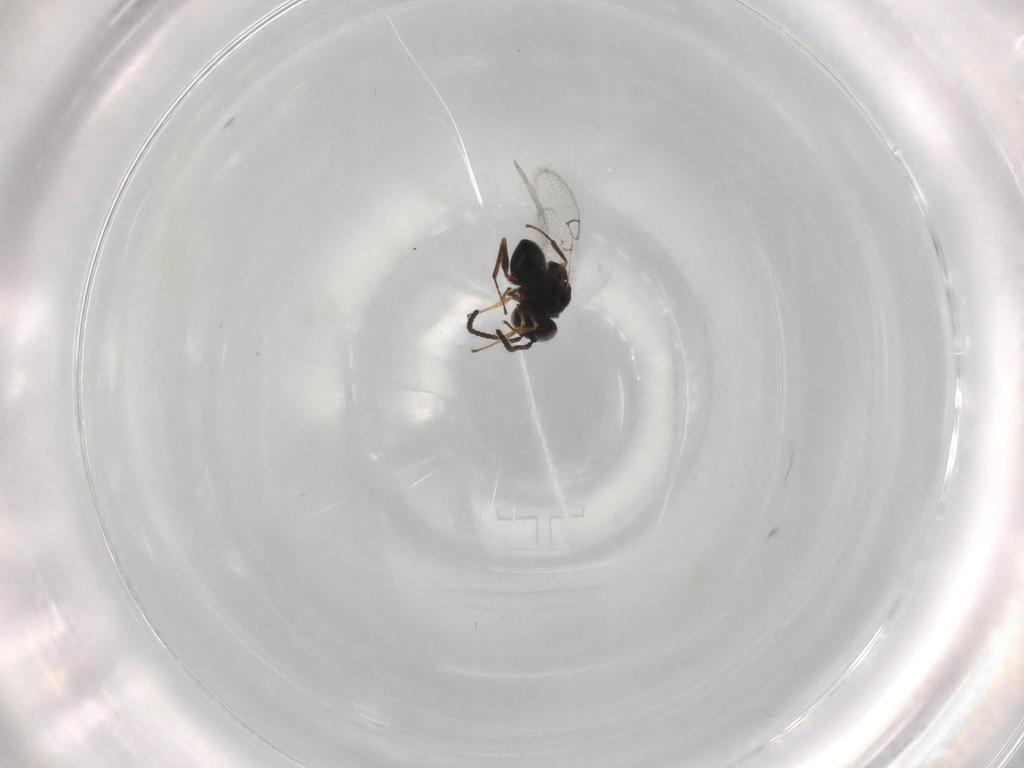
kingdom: Animalia
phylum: Arthropoda
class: Insecta
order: Hymenoptera
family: Figitidae
